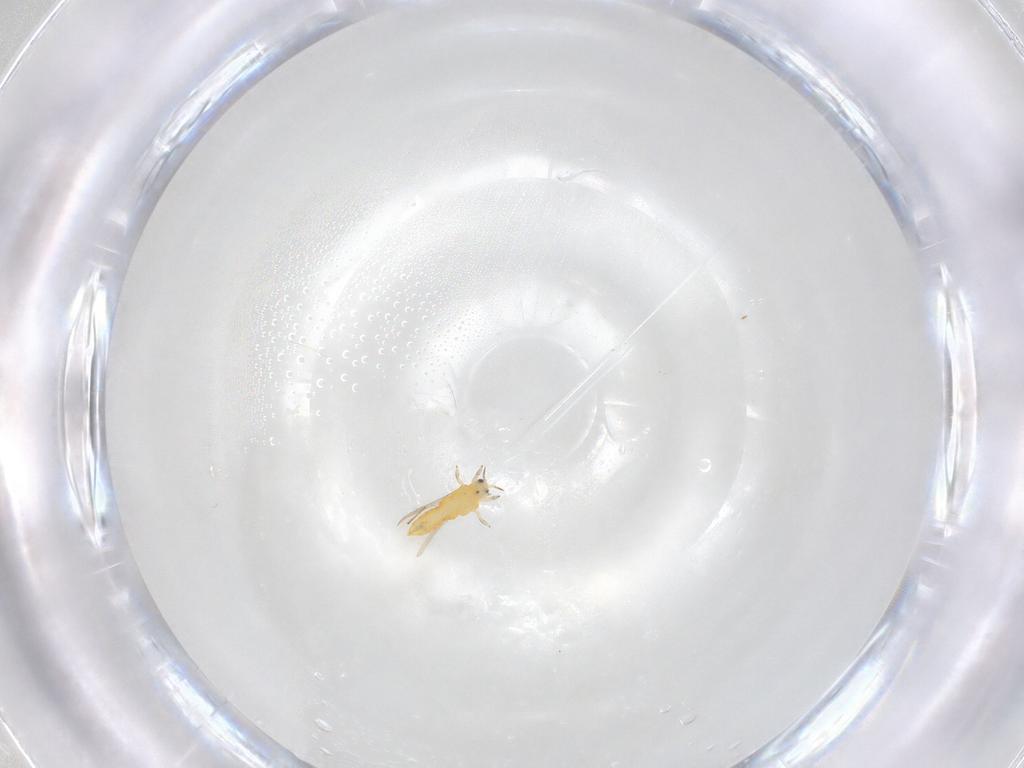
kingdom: Animalia
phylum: Arthropoda
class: Insecta
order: Thysanoptera
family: Thripidae
